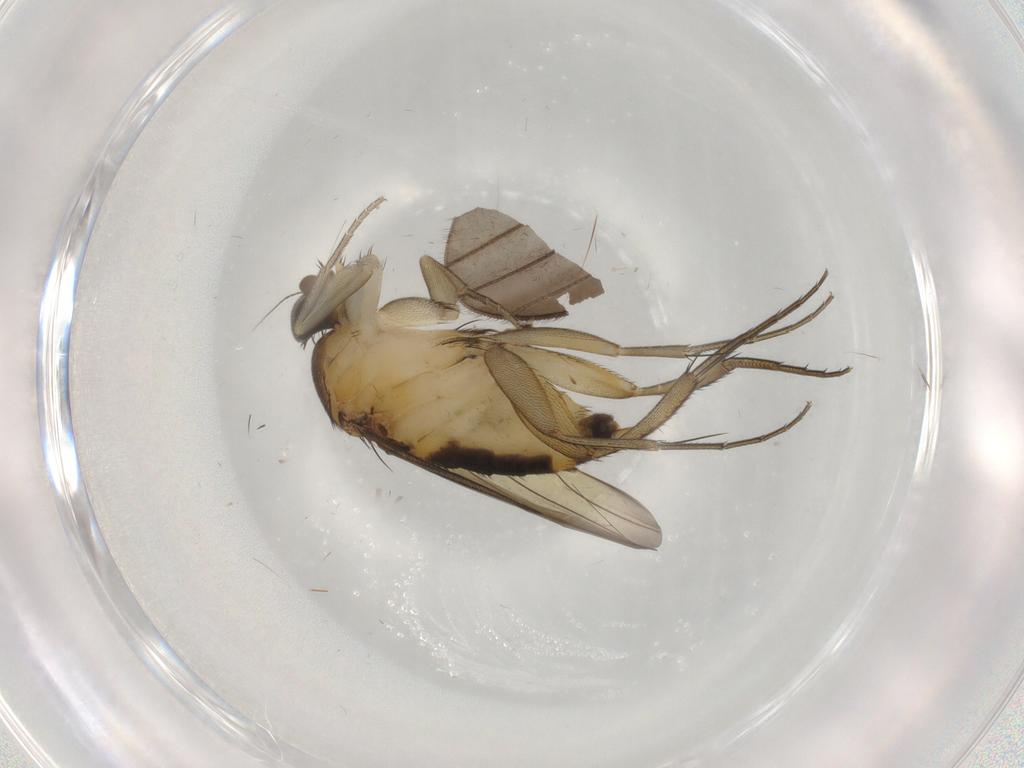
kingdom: Animalia
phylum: Arthropoda
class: Insecta
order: Diptera
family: Limoniidae
